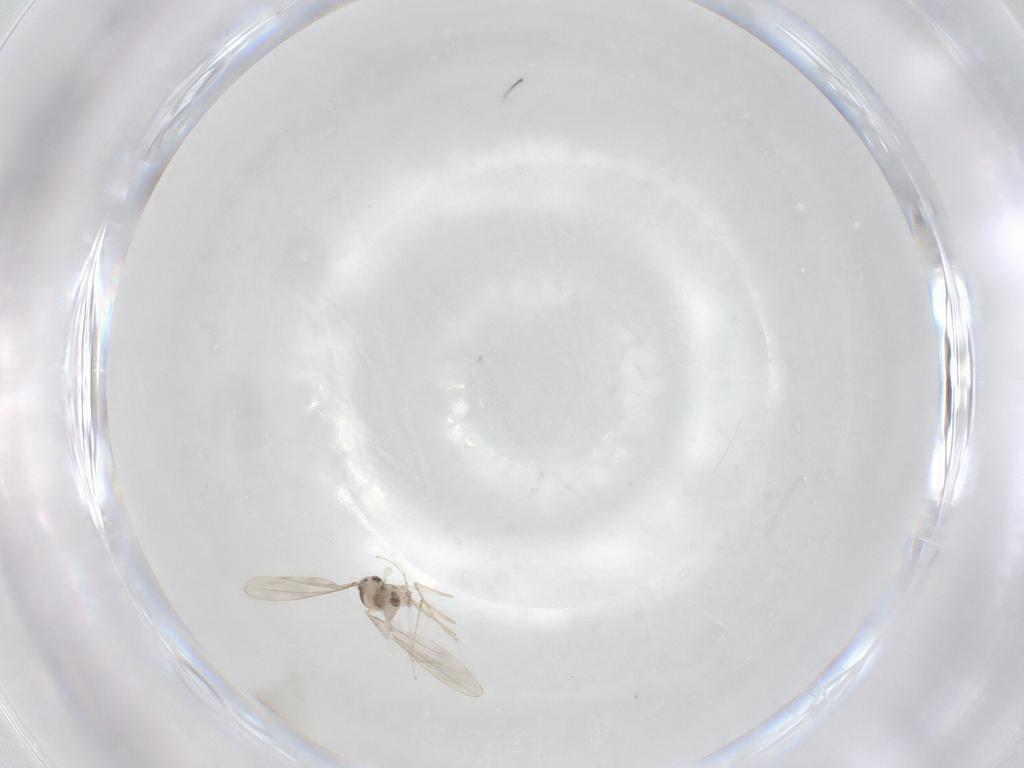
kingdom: Animalia
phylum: Arthropoda
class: Insecta
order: Diptera
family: Cecidomyiidae
